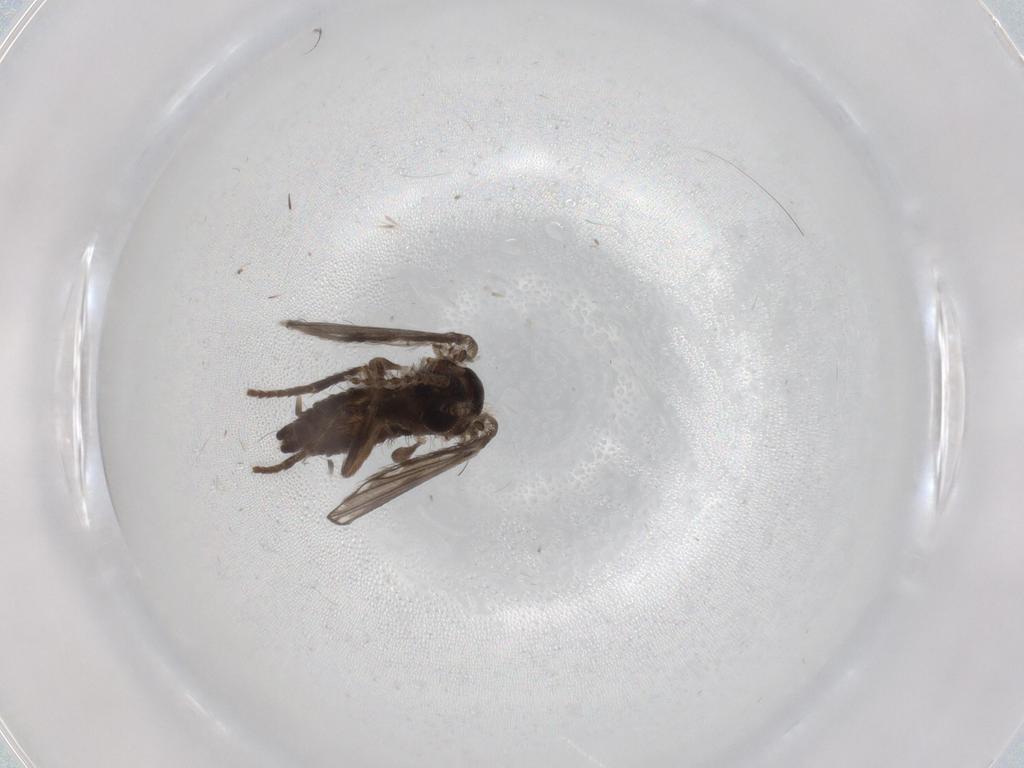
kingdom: Animalia
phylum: Arthropoda
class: Insecta
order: Diptera
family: Psychodidae
